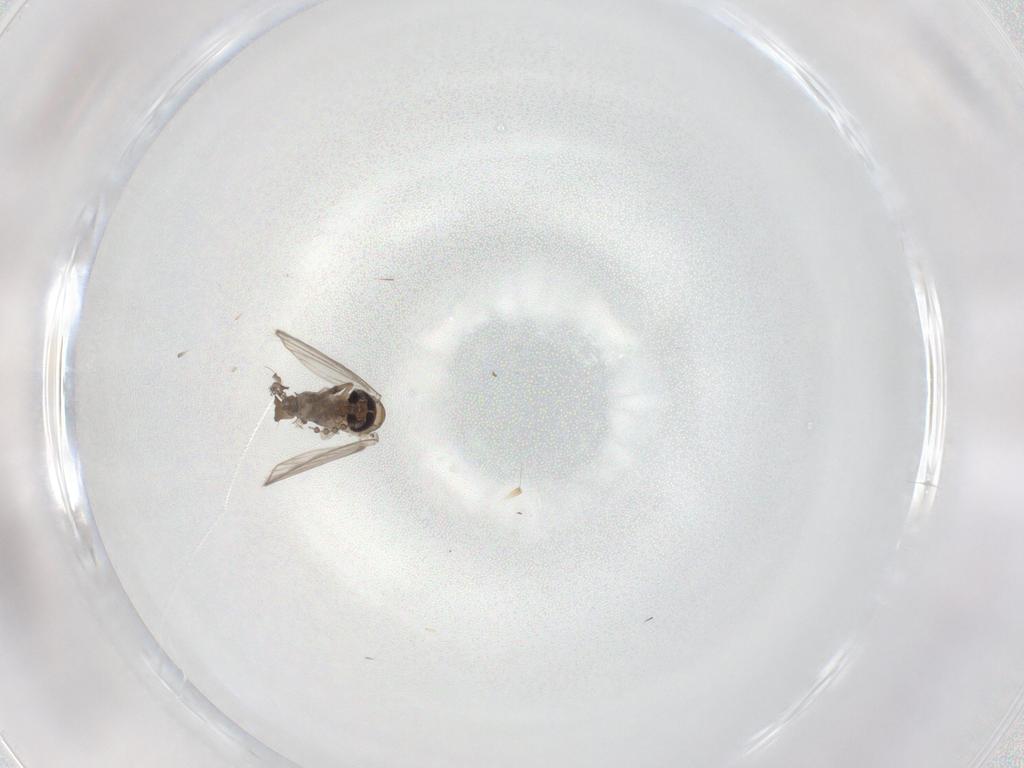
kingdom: Animalia
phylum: Arthropoda
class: Insecta
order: Diptera
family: Psychodidae
